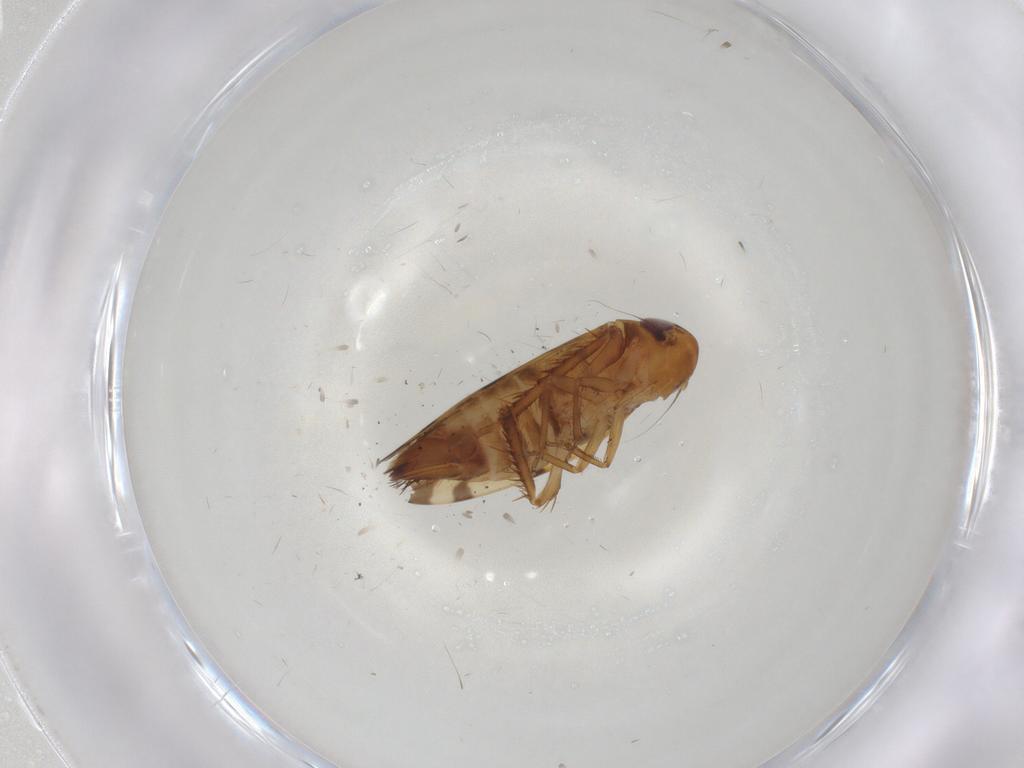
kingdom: Animalia
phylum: Arthropoda
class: Insecta
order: Hemiptera
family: Cicadellidae
